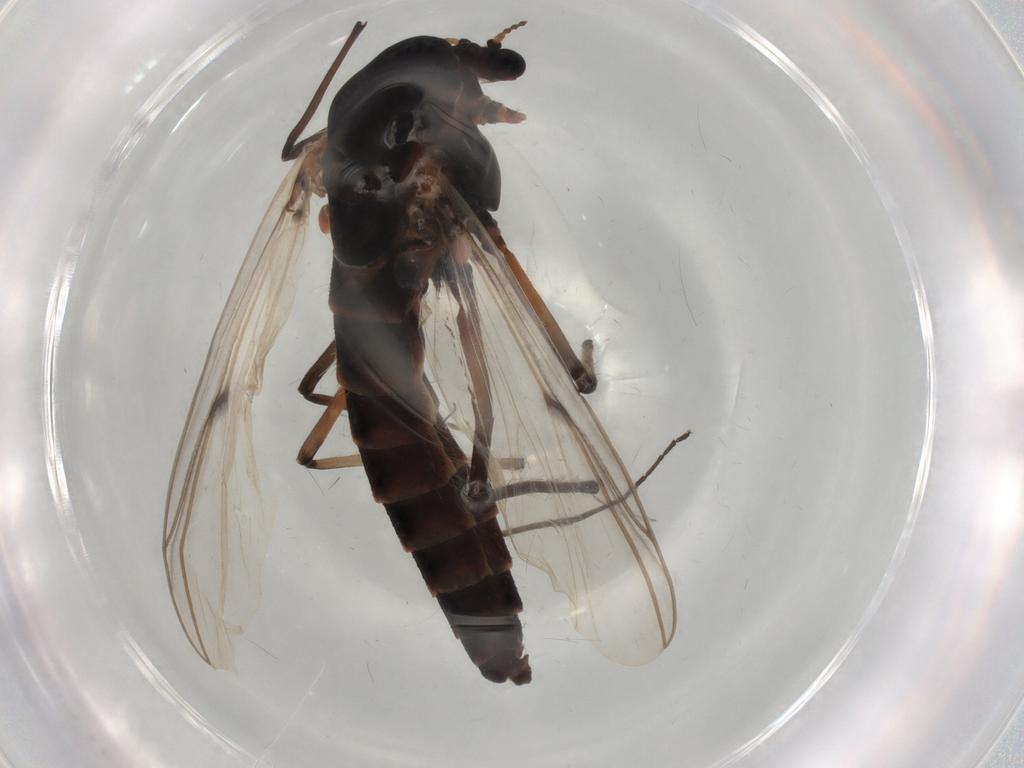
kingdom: Animalia
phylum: Arthropoda
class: Insecta
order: Diptera
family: Chironomidae
